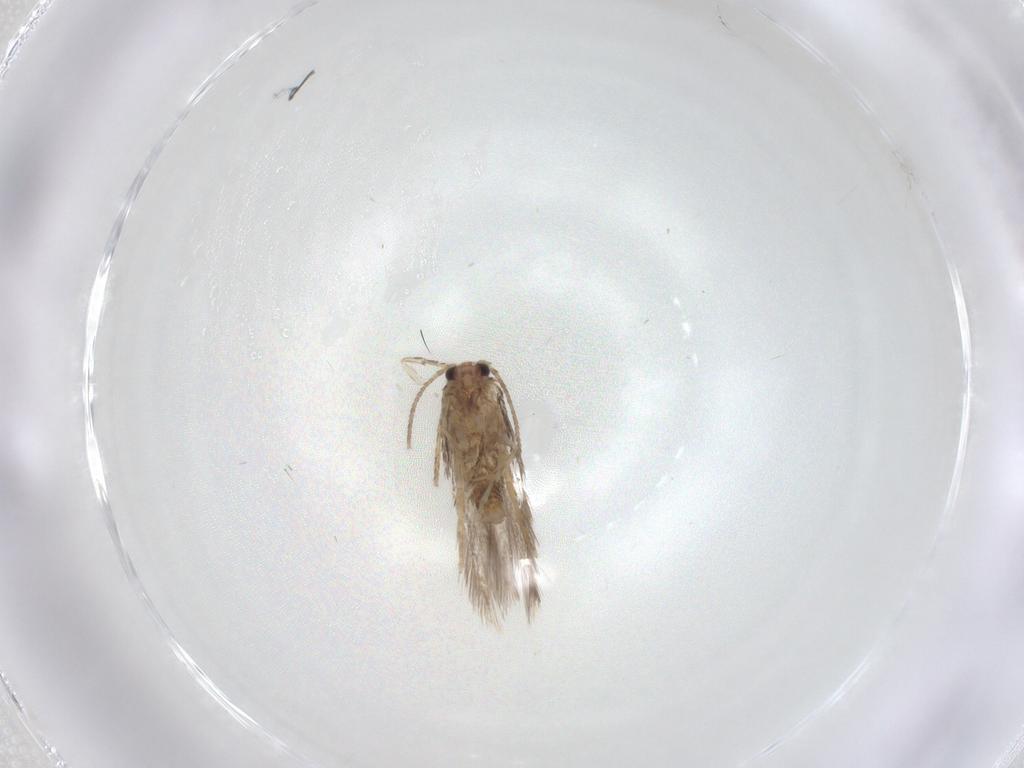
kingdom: Animalia
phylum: Arthropoda
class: Insecta
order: Lepidoptera
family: Nepticulidae
